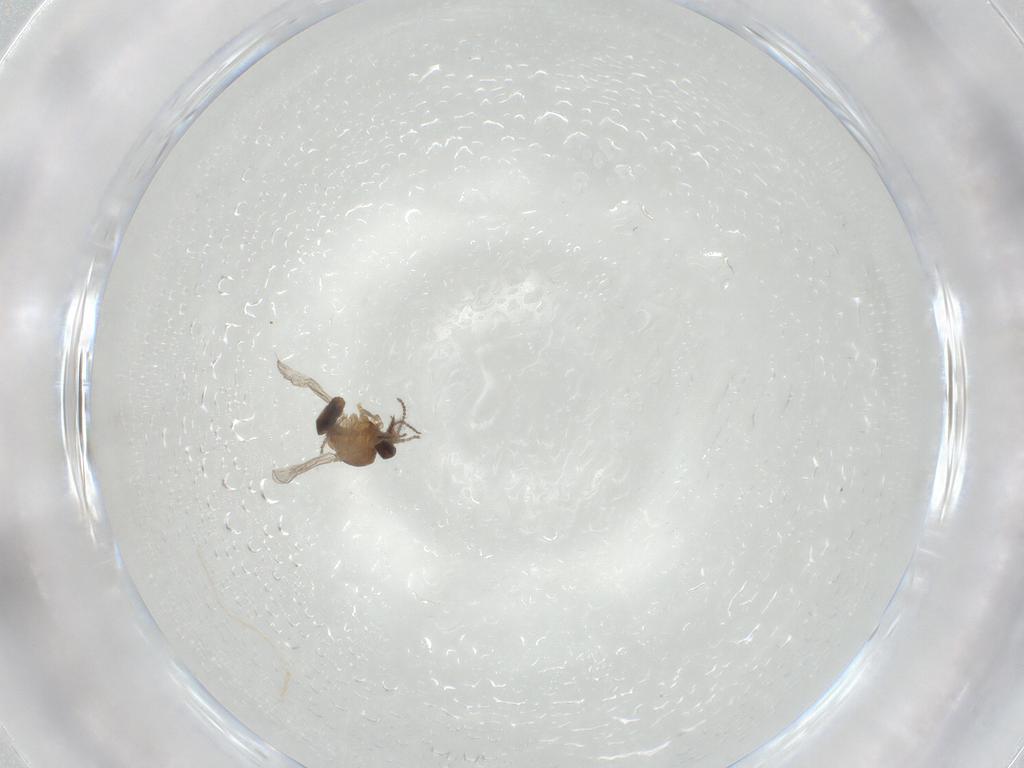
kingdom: Animalia
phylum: Arthropoda
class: Insecta
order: Diptera
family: Ceratopogonidae
